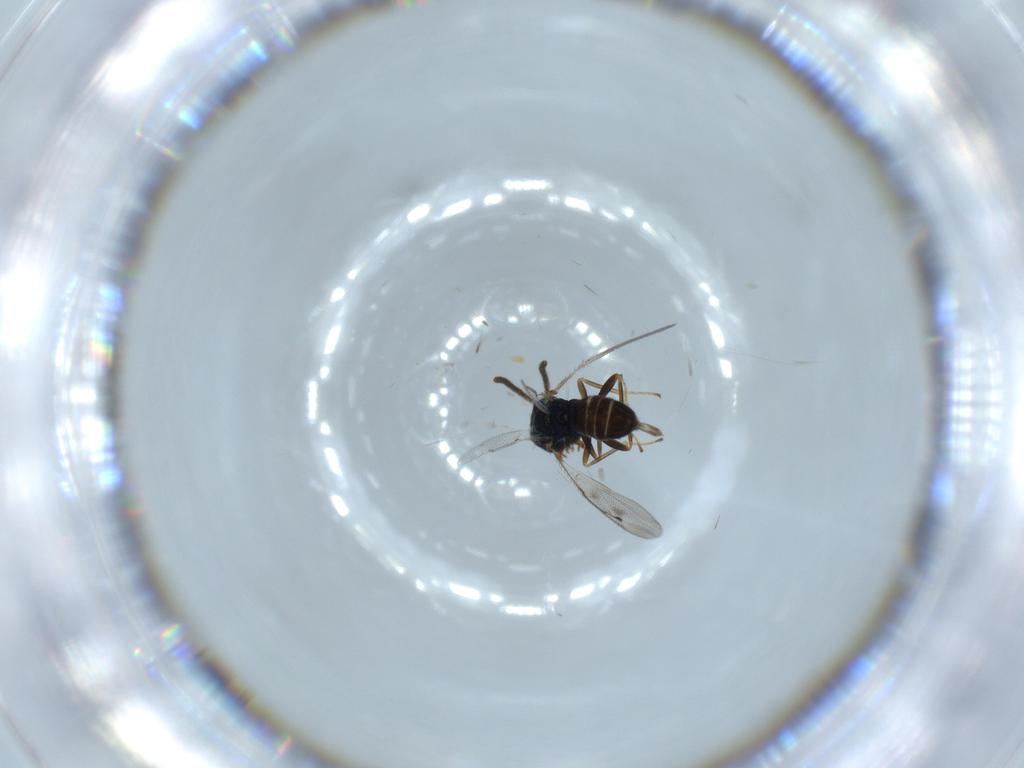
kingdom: Animalia
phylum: Arthropoda
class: Insecta
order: Hymenoptera
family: Pteromalidae
